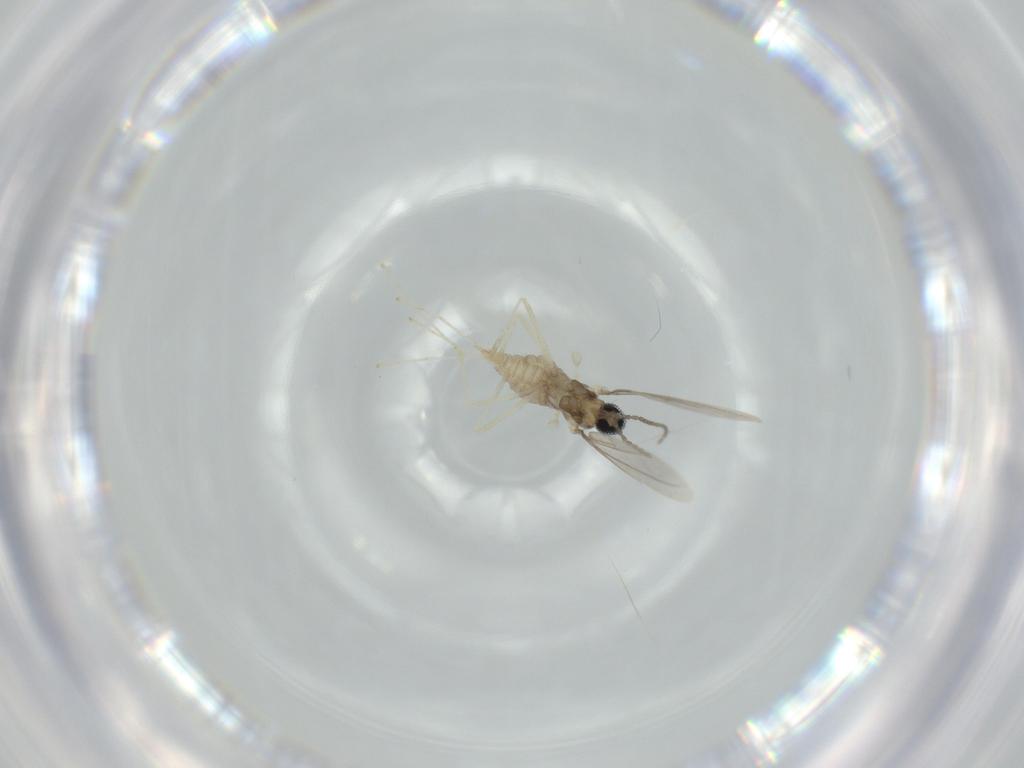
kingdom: Animalia
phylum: Arthropoda
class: Insecta
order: Diptera
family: Cecidomyiidae
